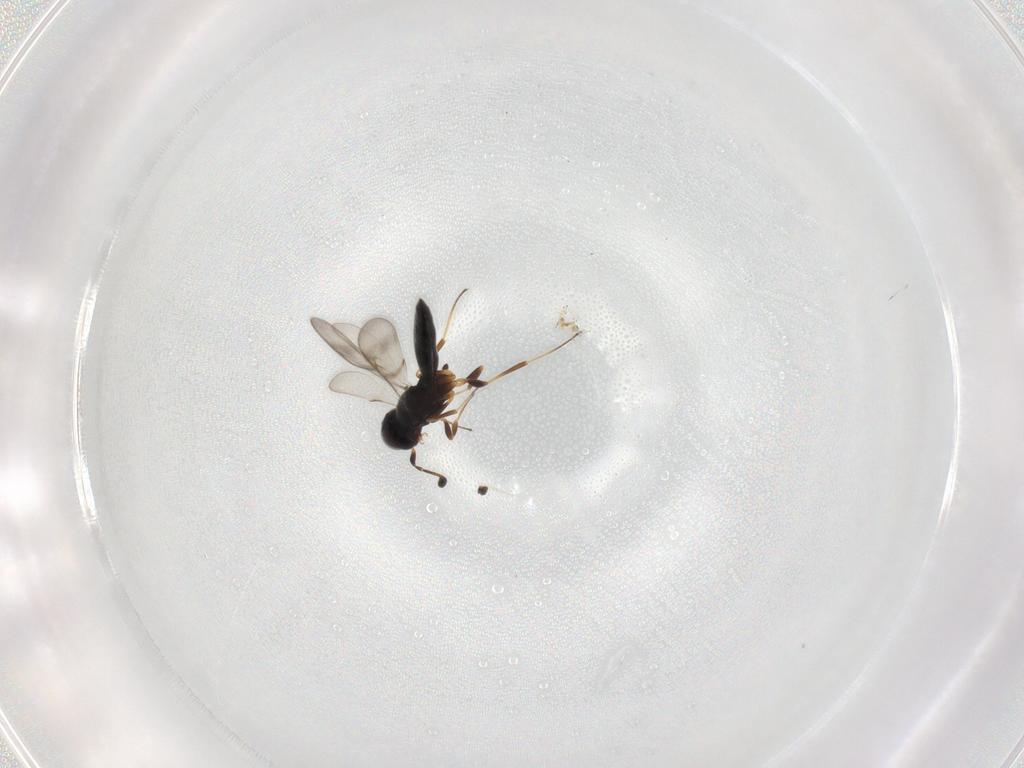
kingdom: Animalia
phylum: Arthropoda
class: Insecta
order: Hymenoptera
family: Scelionidae
